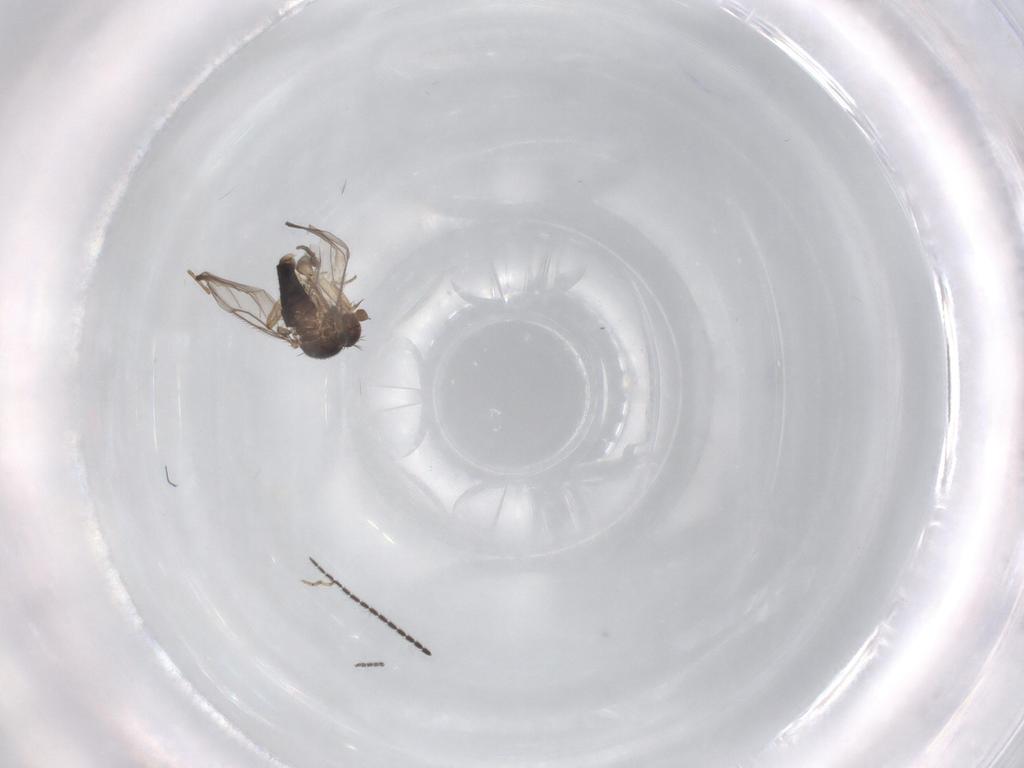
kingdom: Animalia
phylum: Arthropoda
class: Insecta
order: Diptera
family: Phoridae
